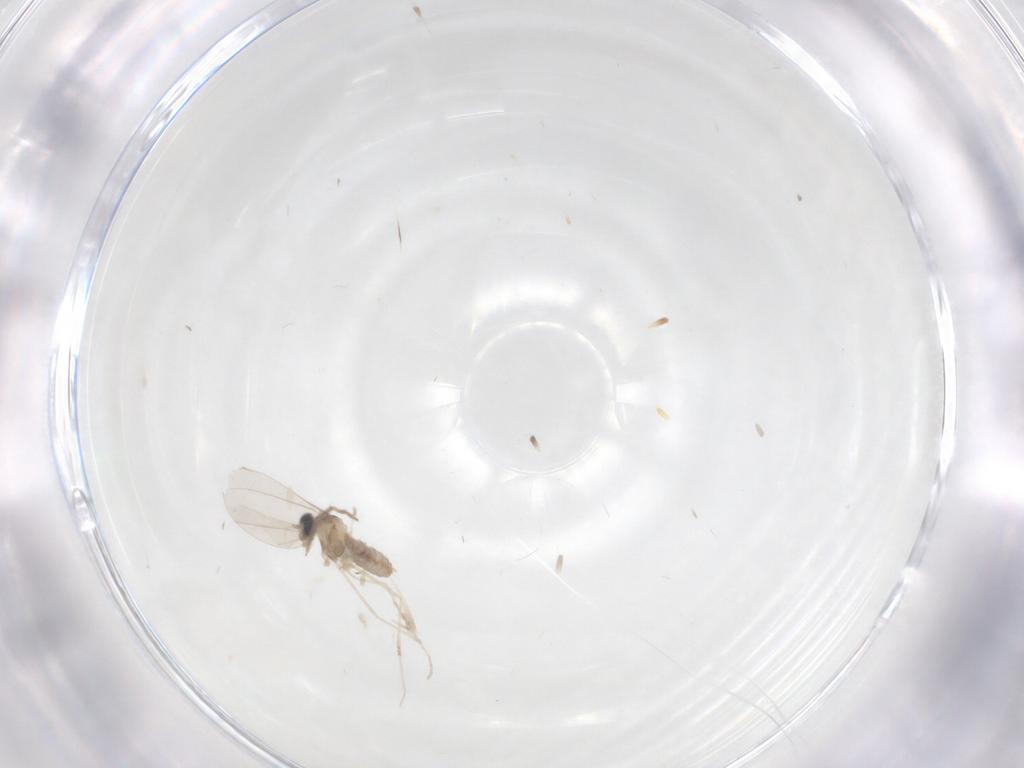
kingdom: Animalia
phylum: Arthropoda
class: Insecta
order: Diptera
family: Cecidomyiidae
